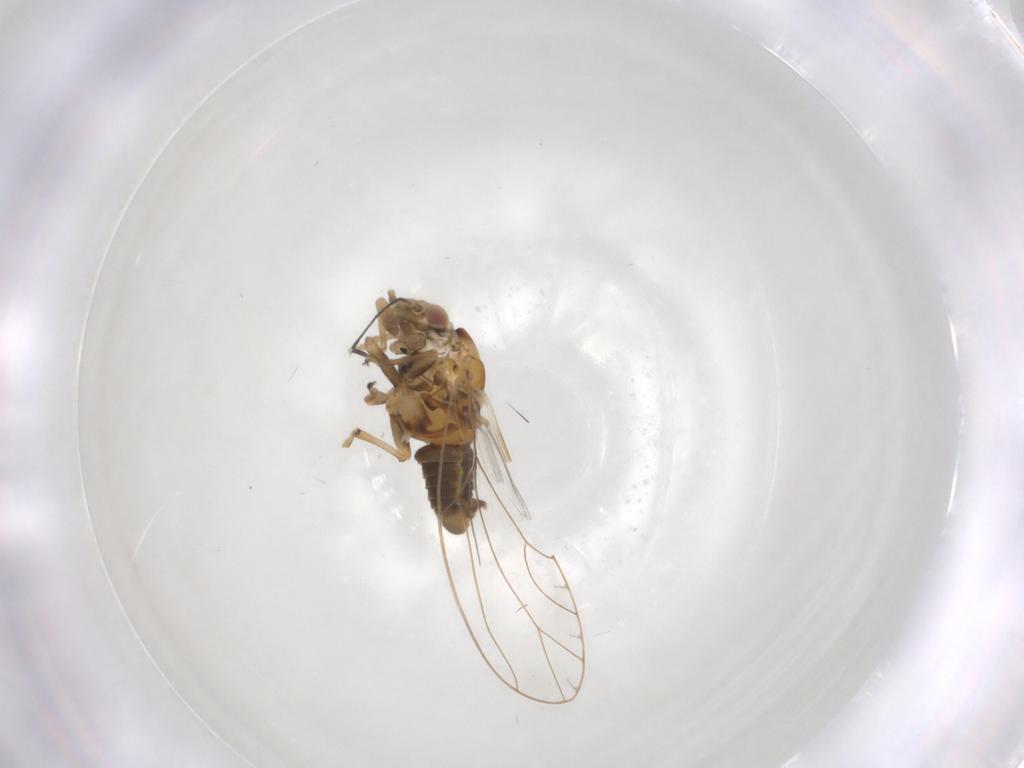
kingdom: Animalia
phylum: Arthropoda
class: Insecta
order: Hemiptera
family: Triozidae
